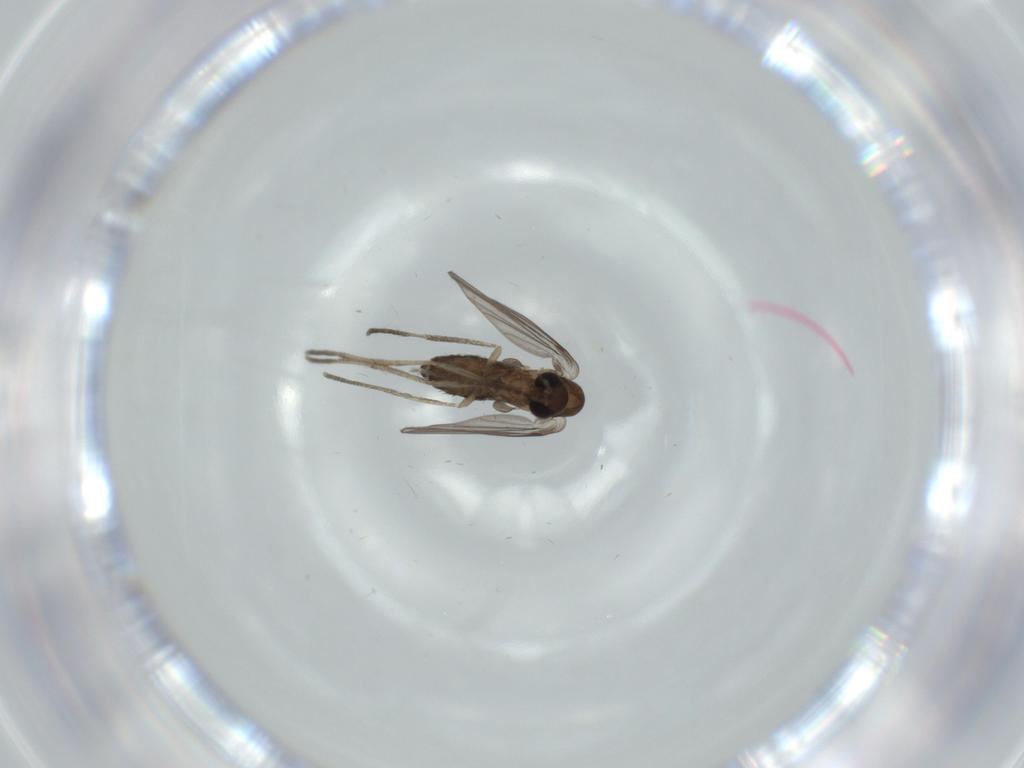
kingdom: Animalia
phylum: Arthropoda
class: Insecta
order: Diptera
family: Psychodidae
